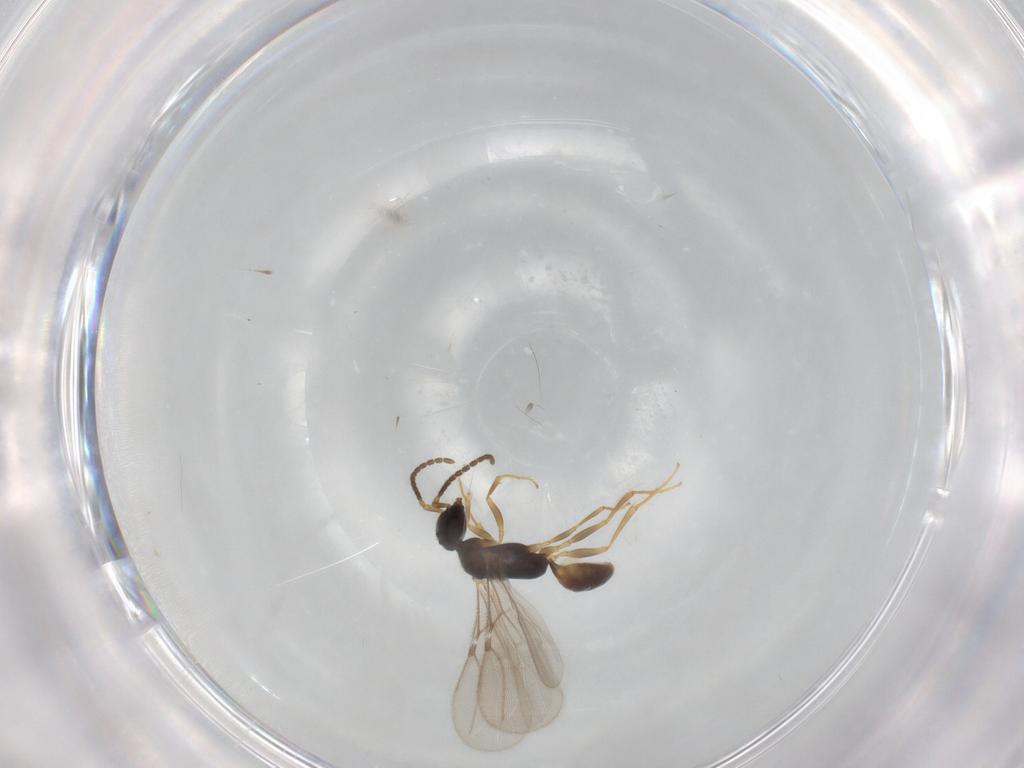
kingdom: Animalia
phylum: Arthropoda
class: Insecta
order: Hymenoptera
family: Bethylidae
